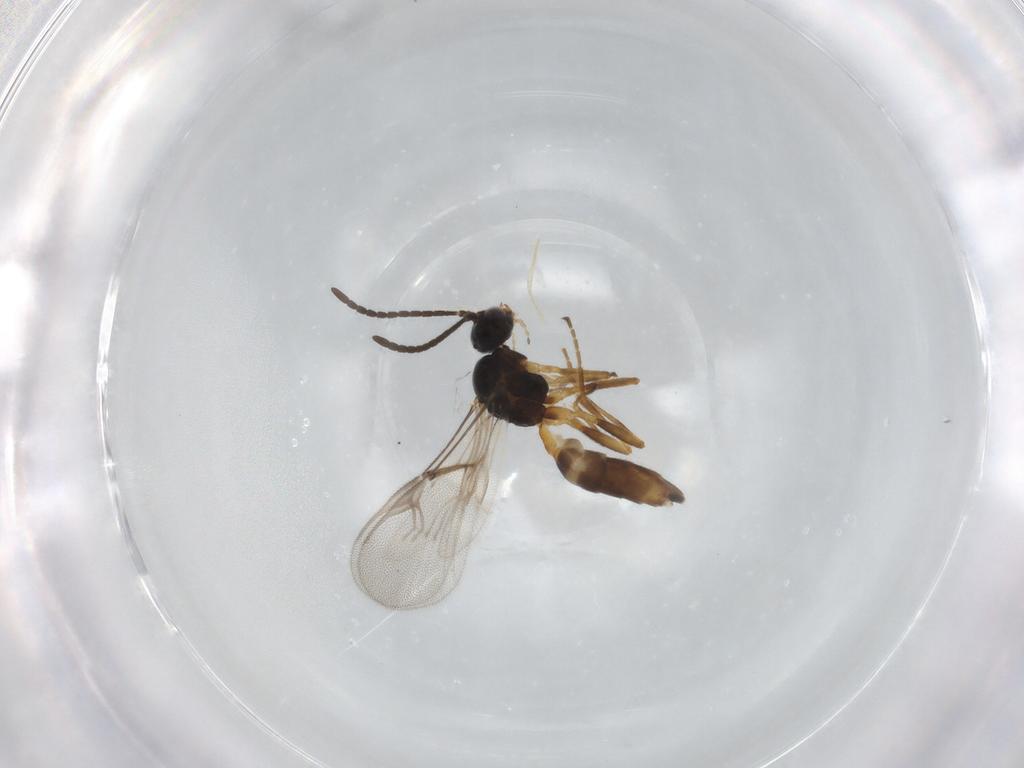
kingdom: Animalia
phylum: Arthropoda
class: Insecta
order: Hymenoptera
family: Braconidae
